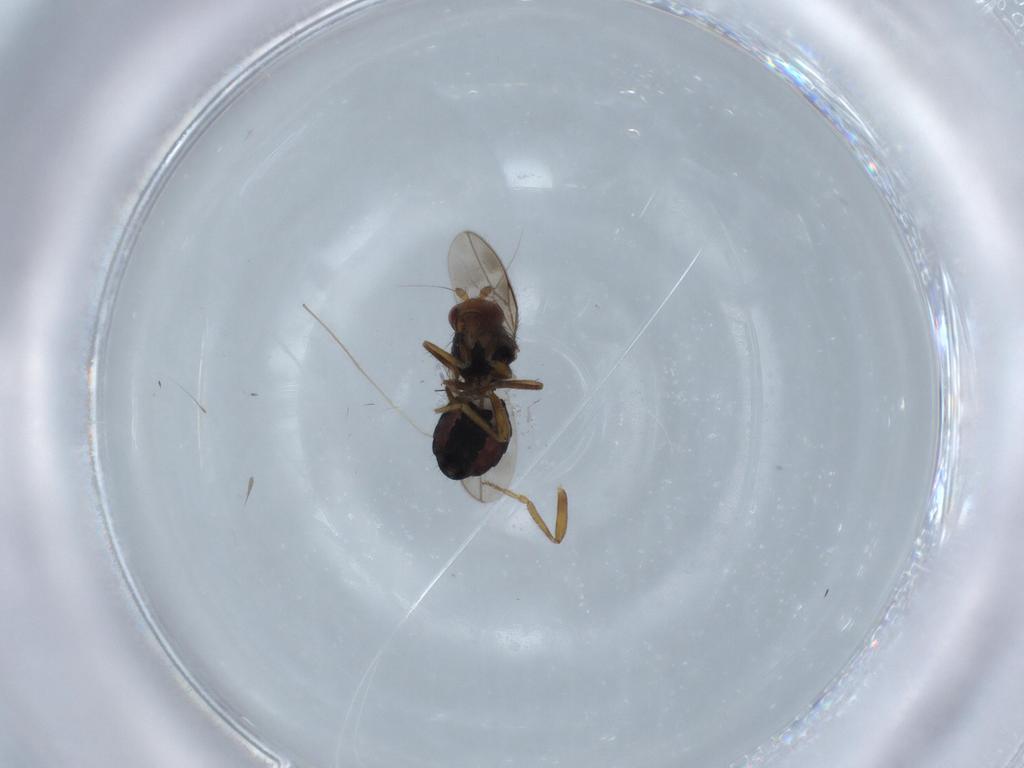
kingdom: Animalia
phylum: Arthropoda
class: Insecta
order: Diptera
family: Sphaeroceridae
